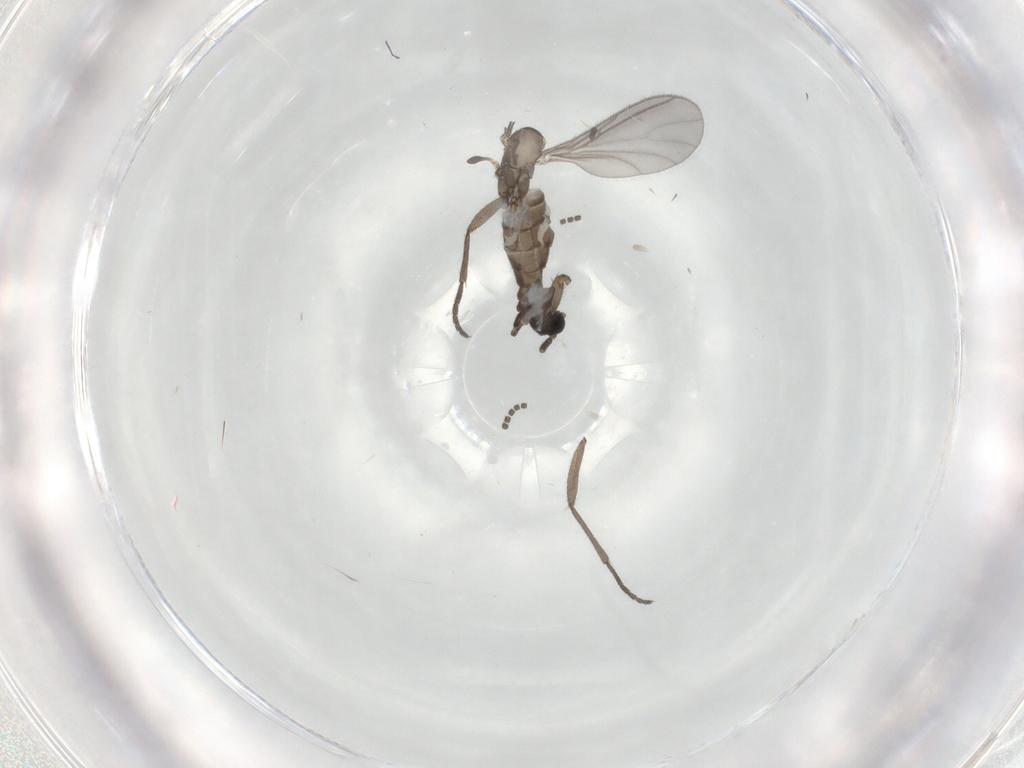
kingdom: Animalia
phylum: Arthropoda
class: Insecta
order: Diptera
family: Sciaridae
